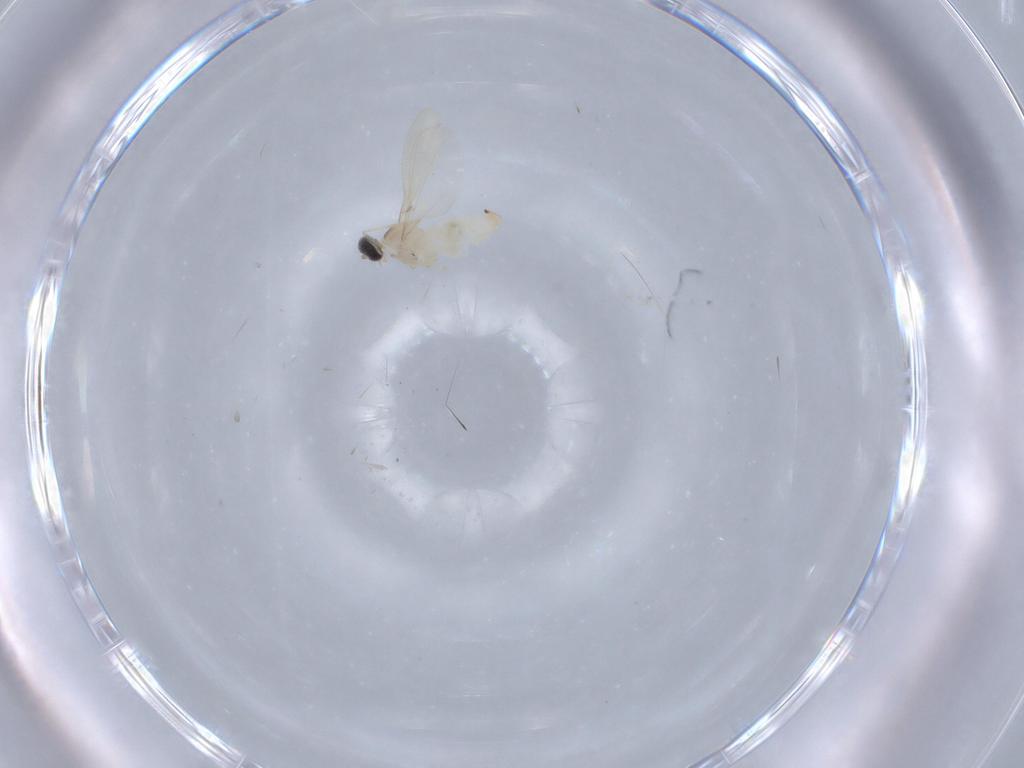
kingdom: Animalia
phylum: Arthropoda
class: Insecta
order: Diptera
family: Cecidomyiidae
